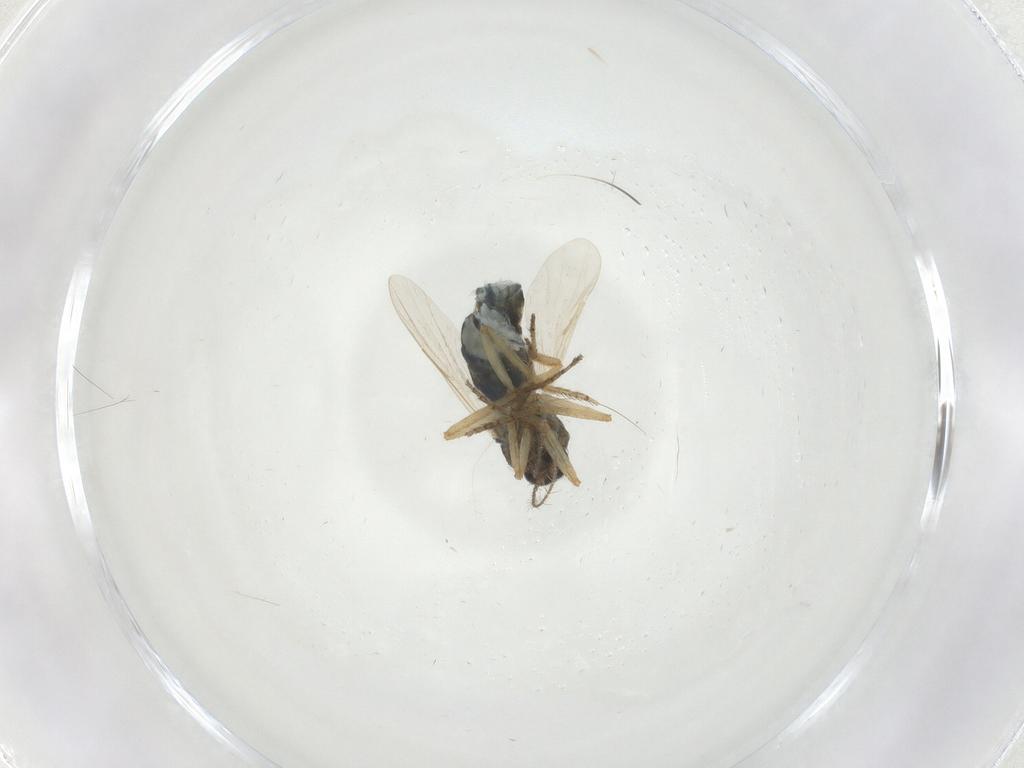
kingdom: Animalia
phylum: Arthropoda
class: Insecta
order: Diptera
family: Ceratopogonidae
